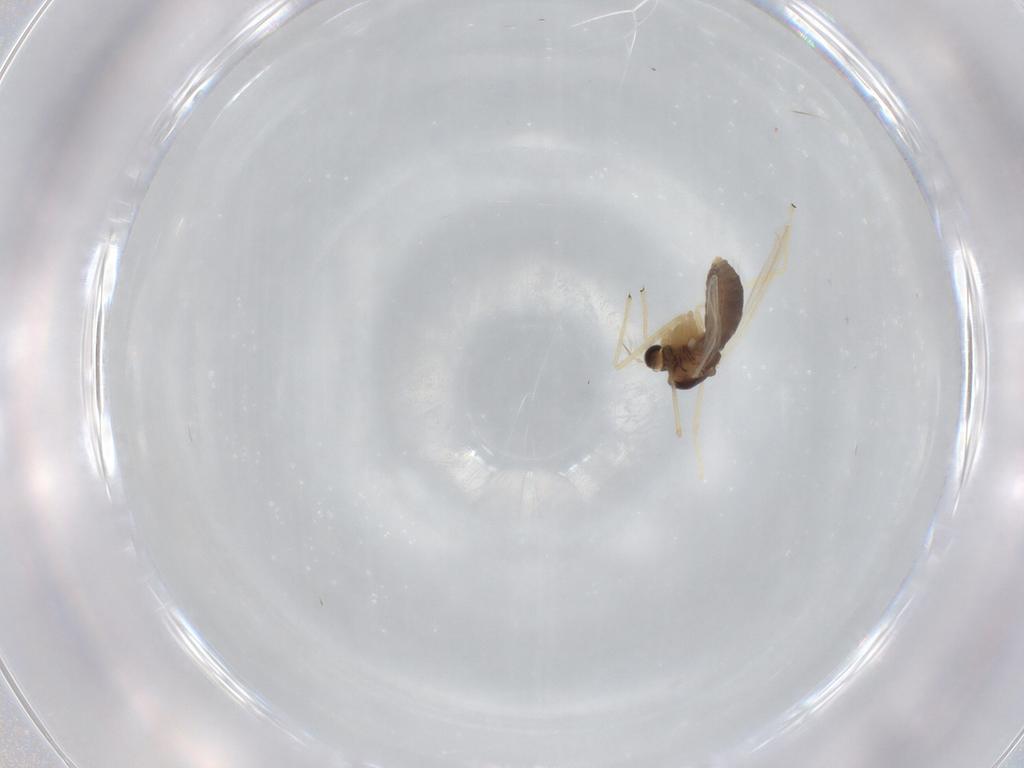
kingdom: Animalia
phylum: Arthropoda
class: Insecta
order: Diptera
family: Chironomidae
